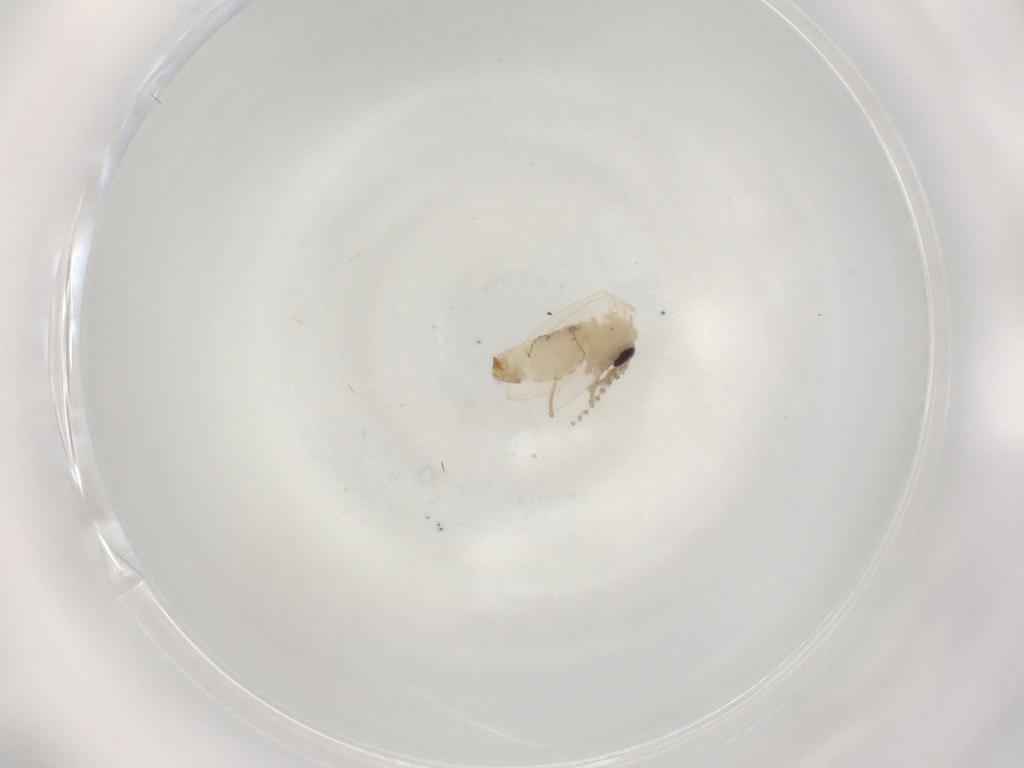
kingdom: Animalia
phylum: Arthropoda
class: Insecta
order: Diptera
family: Psychodidae
